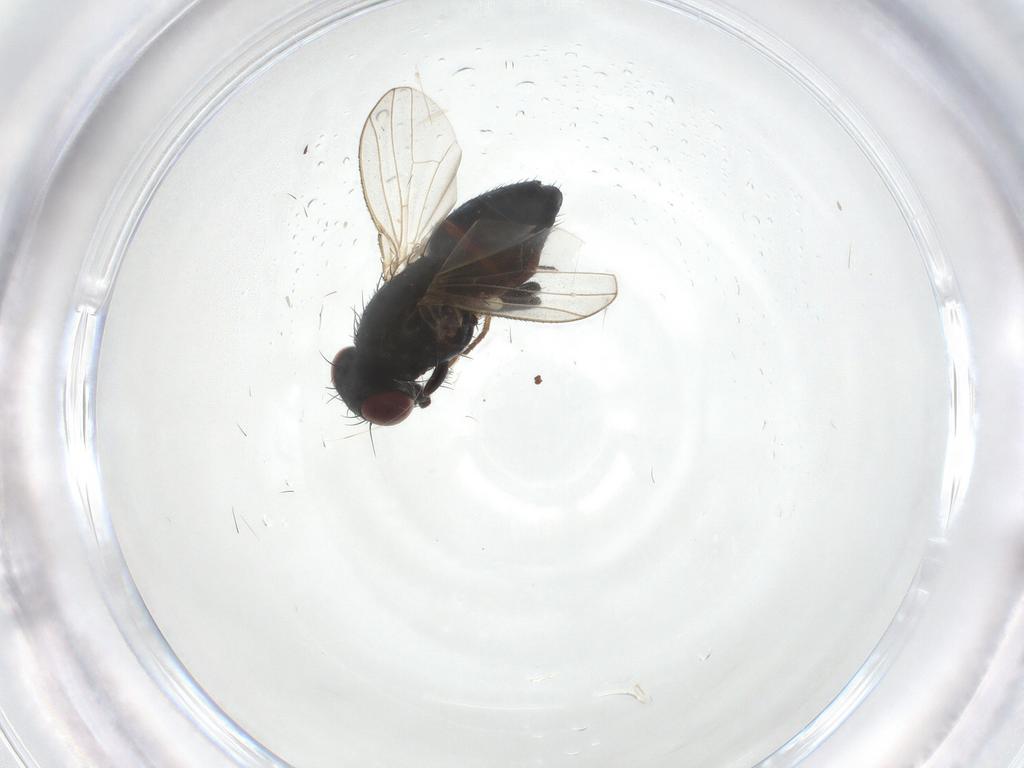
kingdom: Animalia
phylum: Arthropoda
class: Insecta
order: Diptera
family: Carnidae
